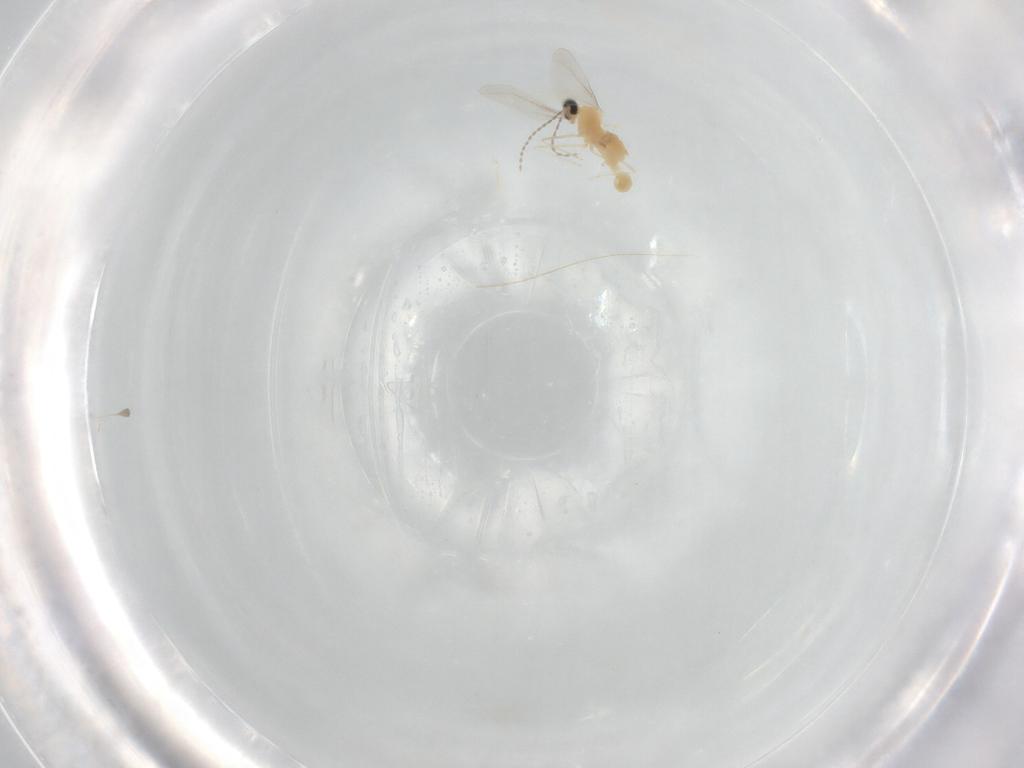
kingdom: Animalia
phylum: Arthropoda
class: Insecta
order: Diptera
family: Cecidomyiidae
